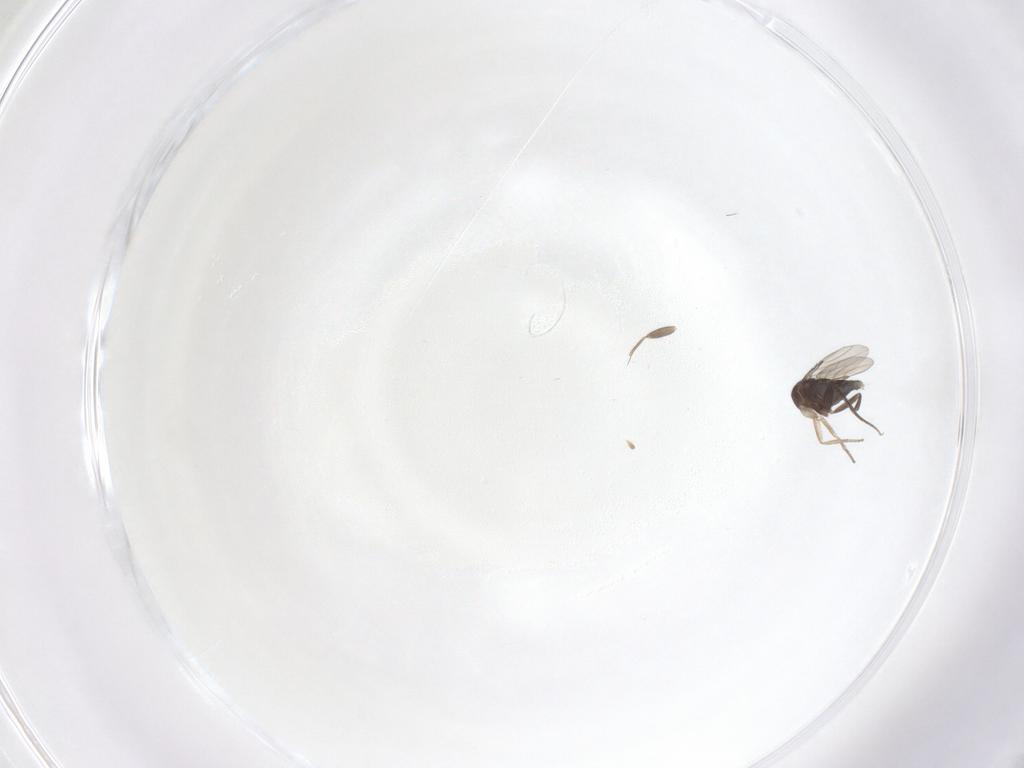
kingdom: Animalia
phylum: Arthropoda
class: Insecta
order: Diptera
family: Phoridae
